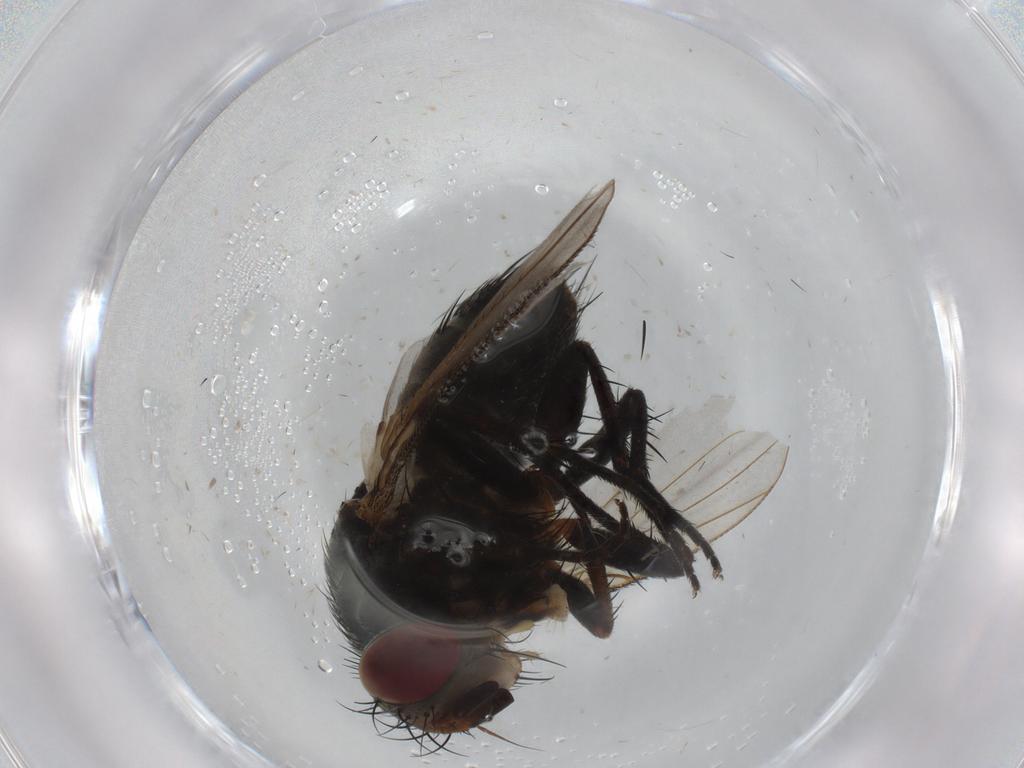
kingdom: Animalia
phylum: Arthropoda
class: Insecta
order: Diptera
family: Tachinidae
